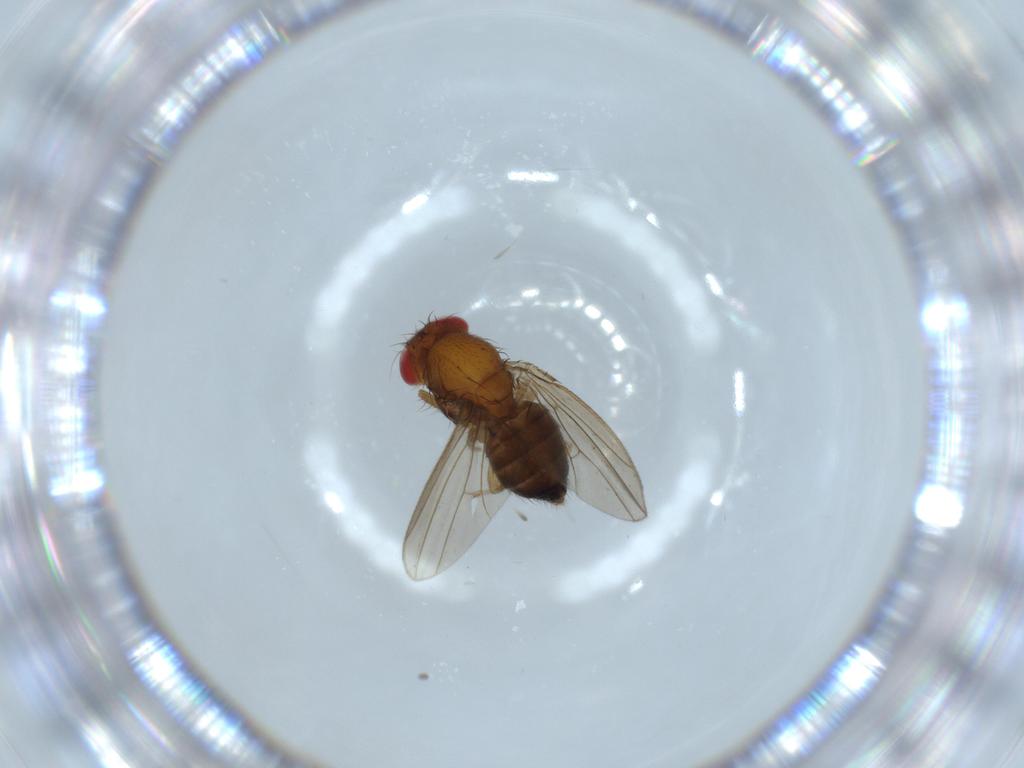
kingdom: Animalia
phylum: Arthropoda
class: Insecta
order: Diptera
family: Drosophilidae
